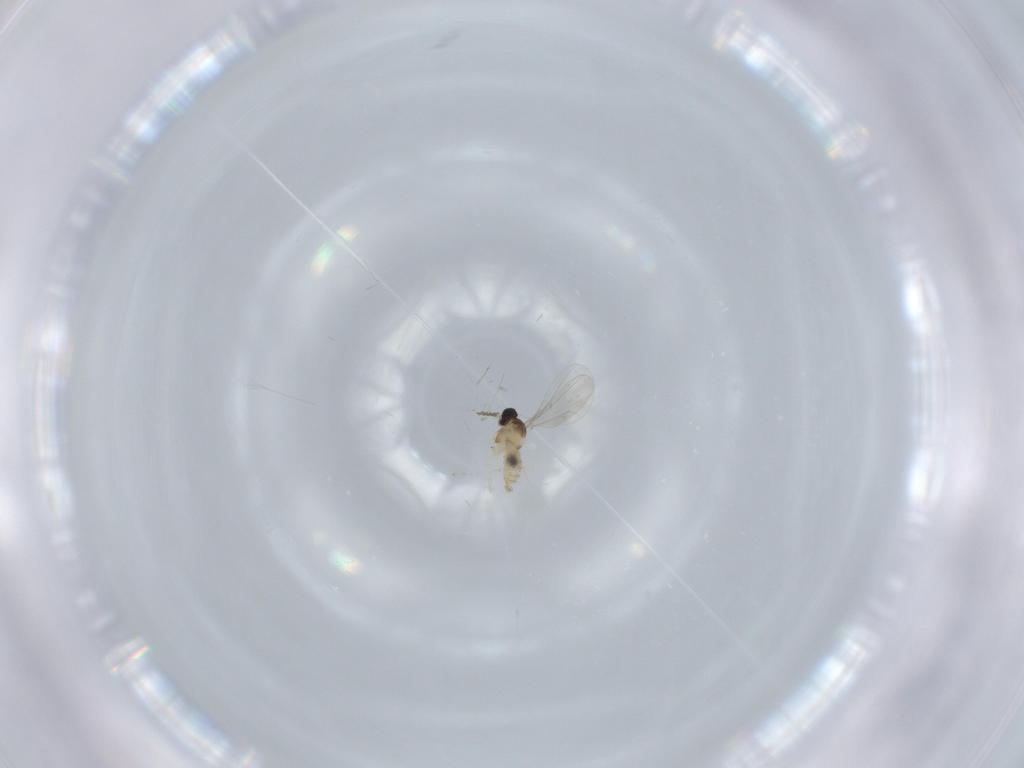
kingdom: Animalia
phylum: Arthropoda
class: Insecta
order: Diptera
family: Cecidomyiidae
